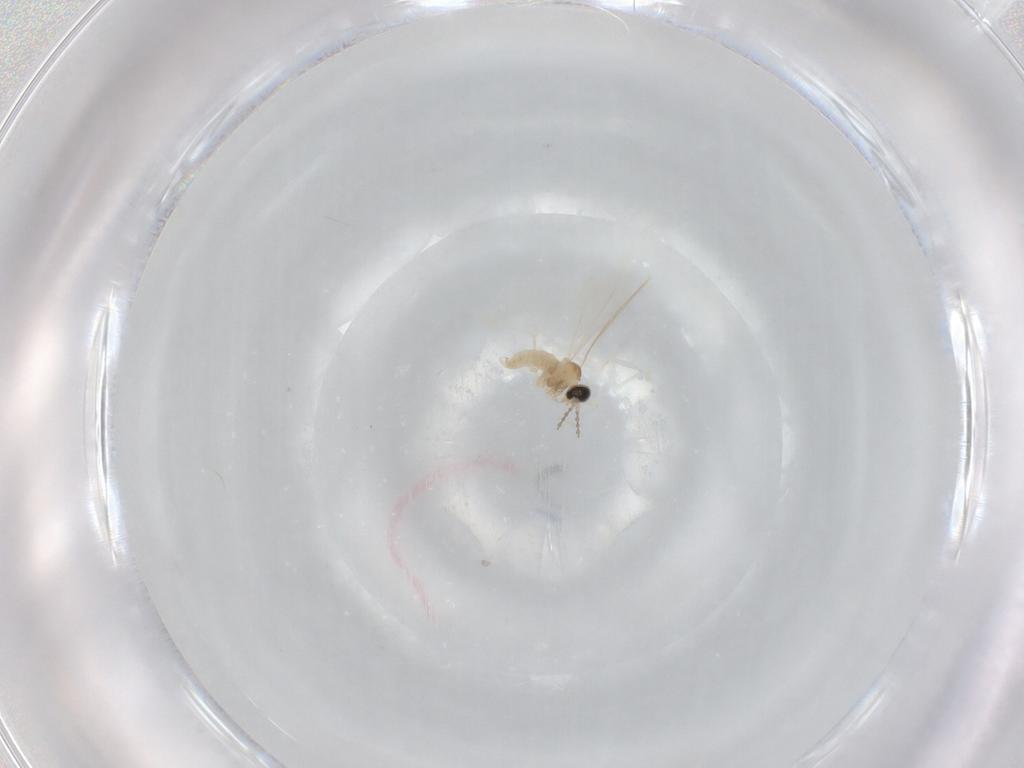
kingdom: Animalia
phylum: Arthropoda
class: Insecta
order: Diptera
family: Cecidomyiidae
